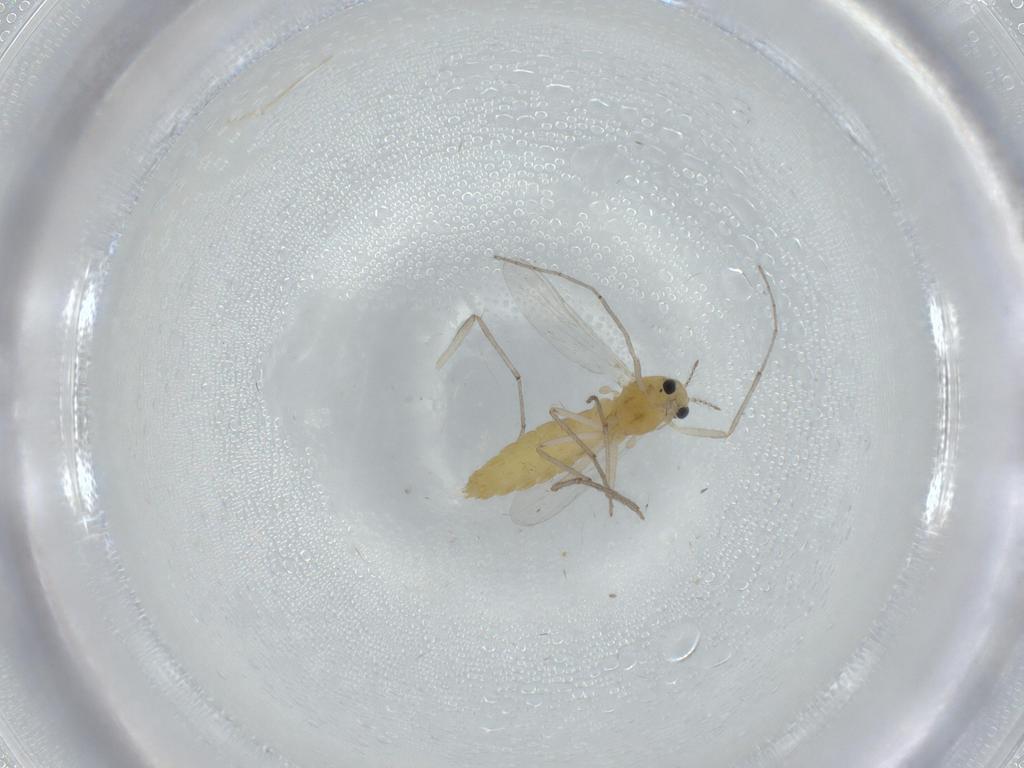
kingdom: Animalia
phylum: Arthropoda
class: Insecta
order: Diptera
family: Chironomidae
